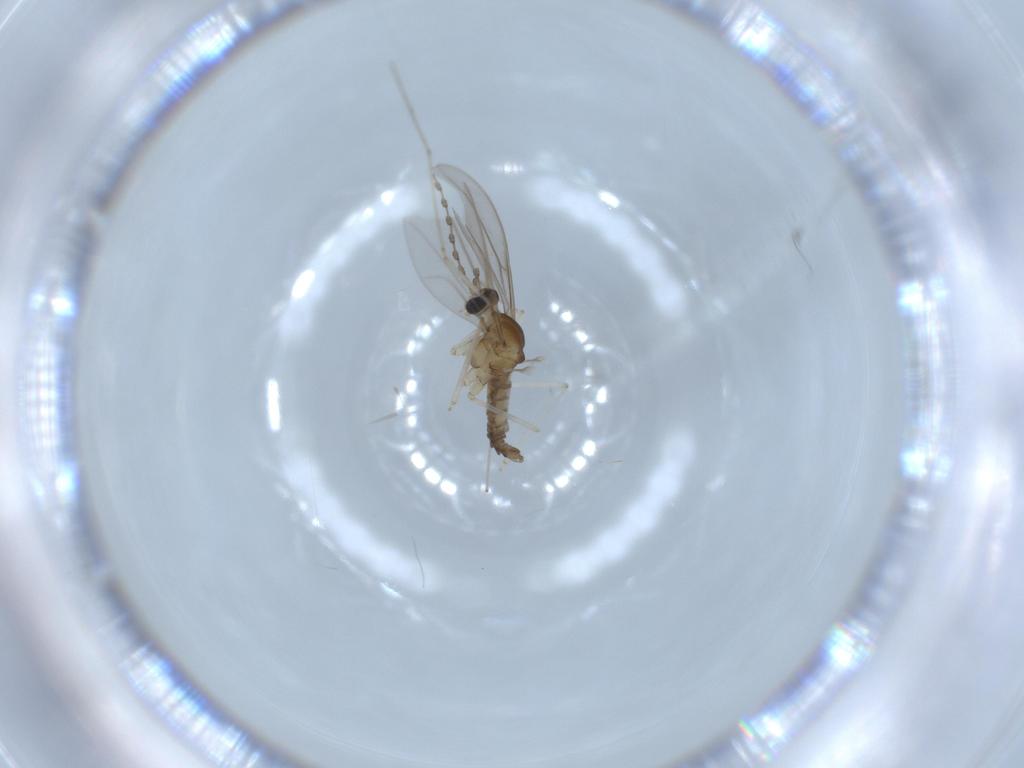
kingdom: Animalia
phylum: Arthropoda
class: Insecta
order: Diptera
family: Cecidomyiidae
